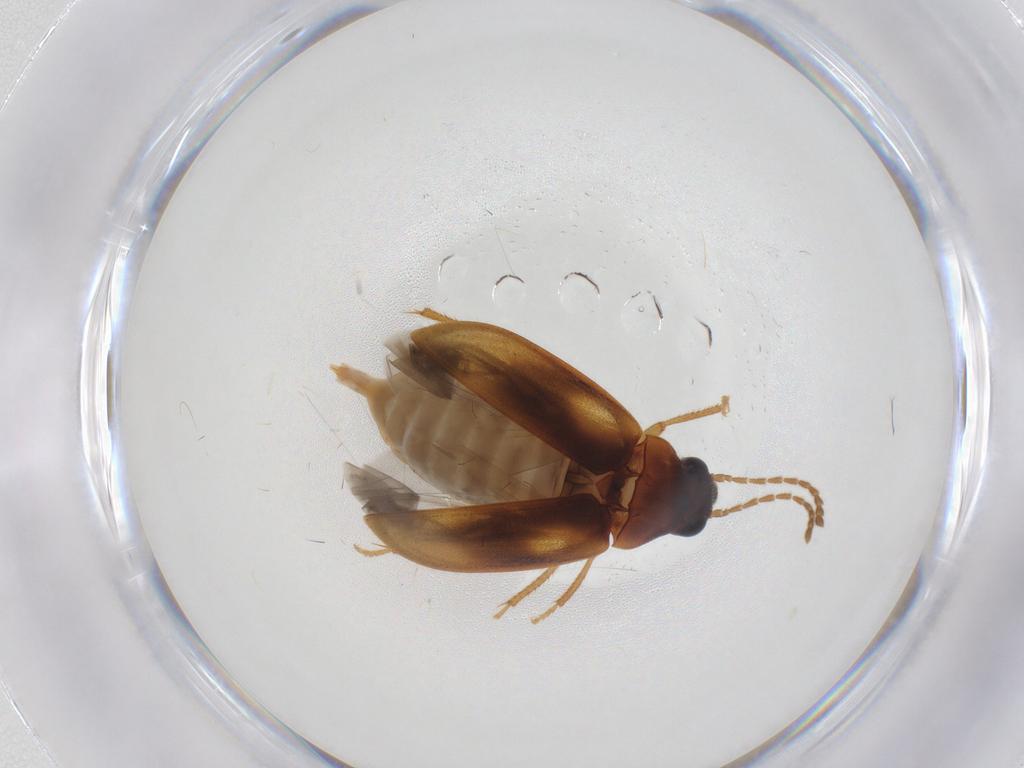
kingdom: Animalia
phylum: Arthropoda
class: Insecta
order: Coleoptera
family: Ptilodactylidae
